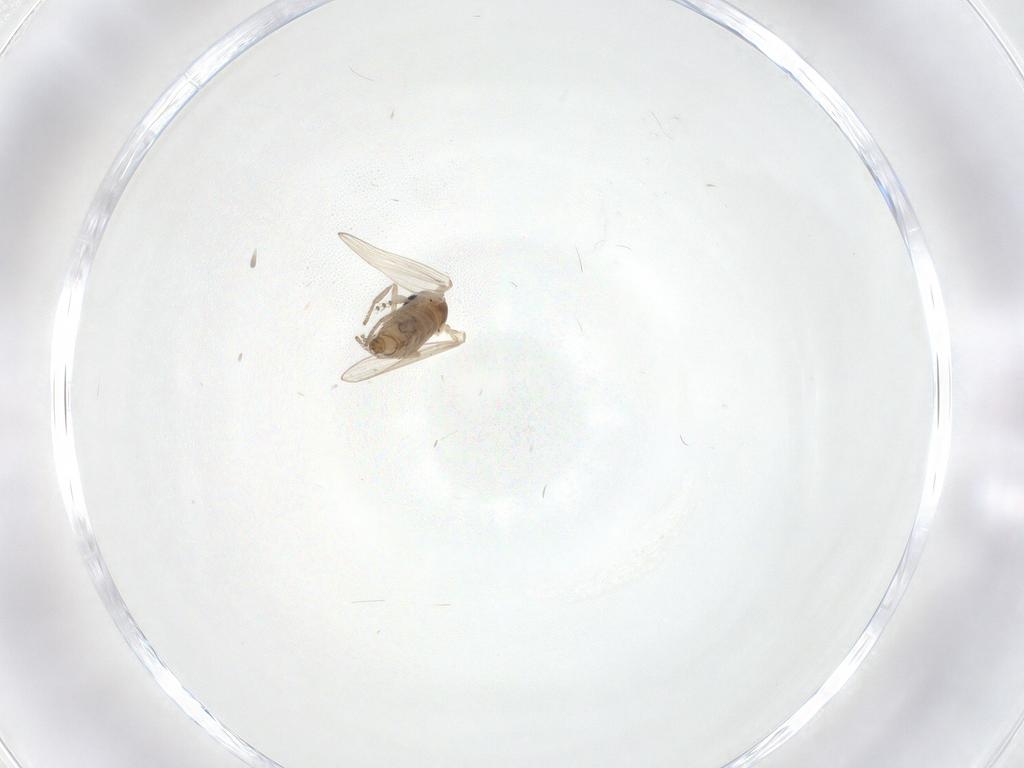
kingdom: Animalia
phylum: Arthropoda
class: Insecta
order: Diptera
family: Psychodidae
